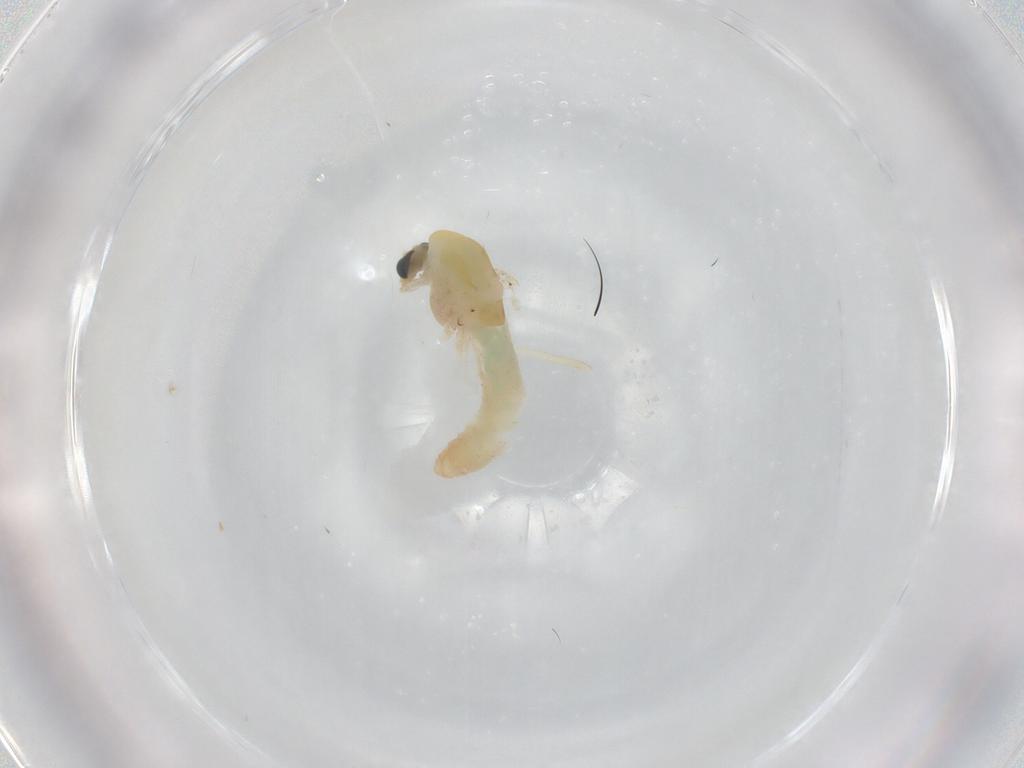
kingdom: Animalia
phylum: Arthropoda
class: Insecta
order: Diptera
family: Chironomidae
